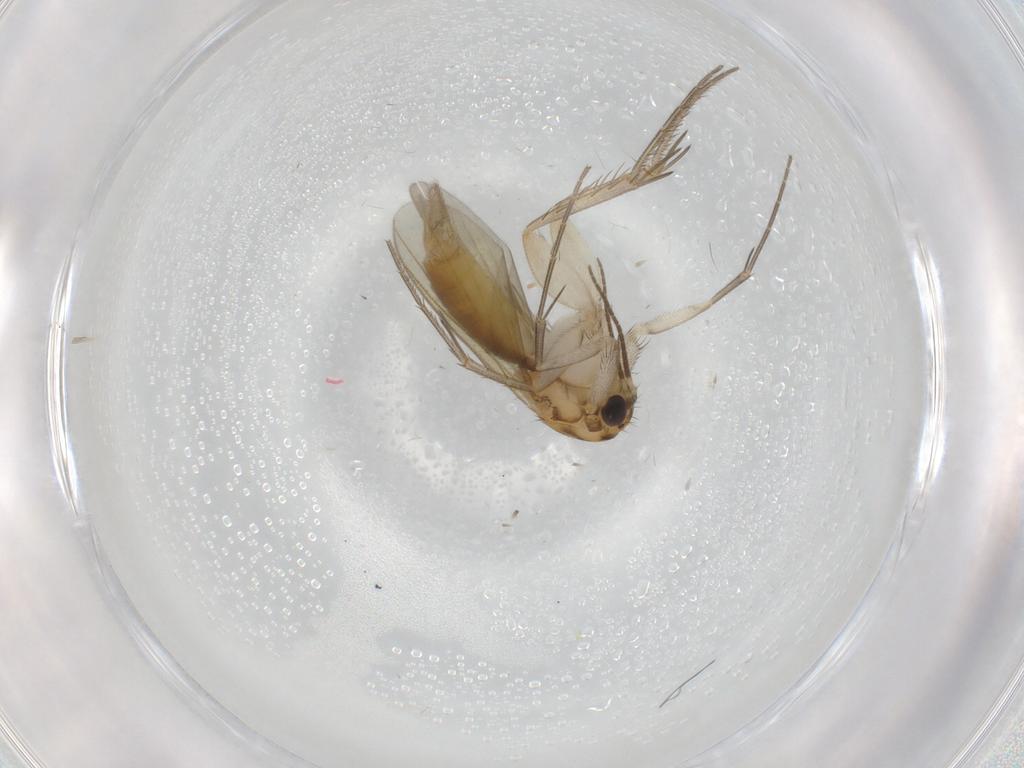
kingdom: Animalia
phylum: Arthropoda
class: Insecta
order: Diptera
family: Mycetophilidae
